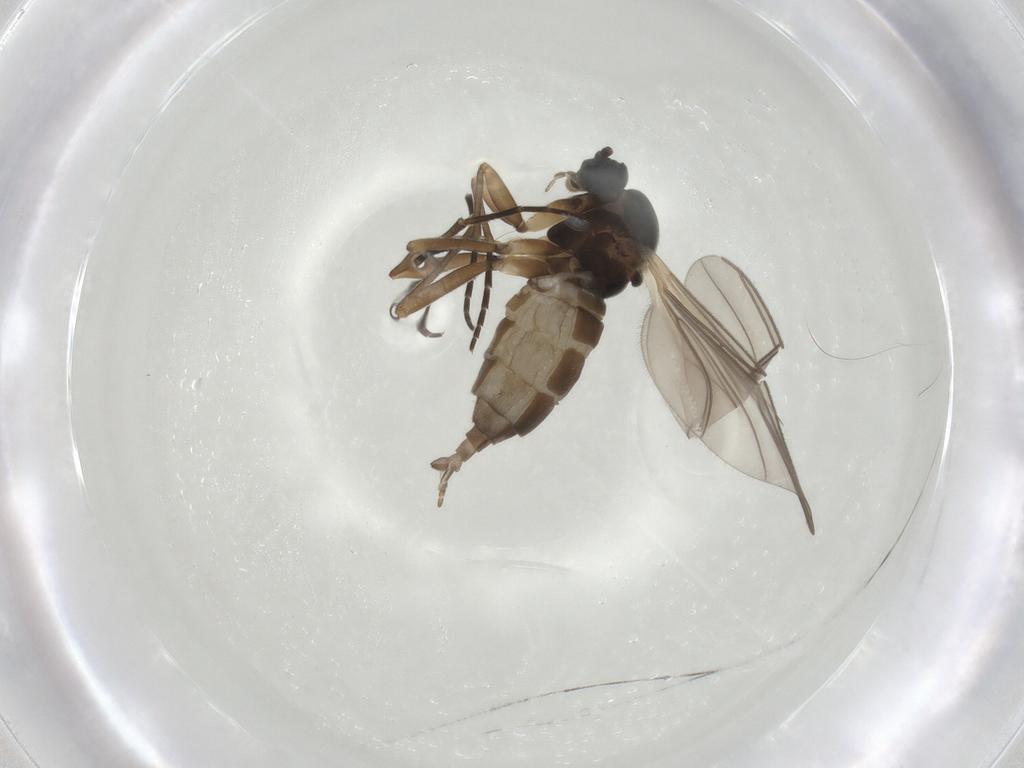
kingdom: Animalia
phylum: Arthropoda
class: Insecta
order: Diptera
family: Sciaridae
